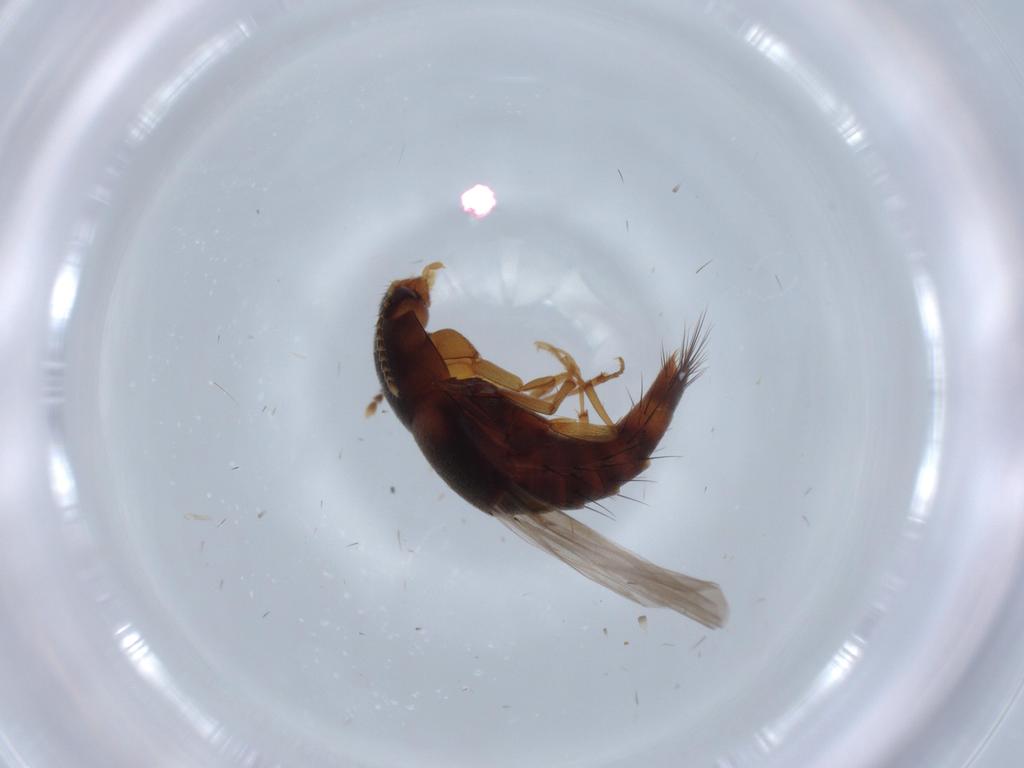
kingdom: Animalia
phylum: Arthropoda
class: Insecta
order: Coleoptera
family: Staphylinidae
